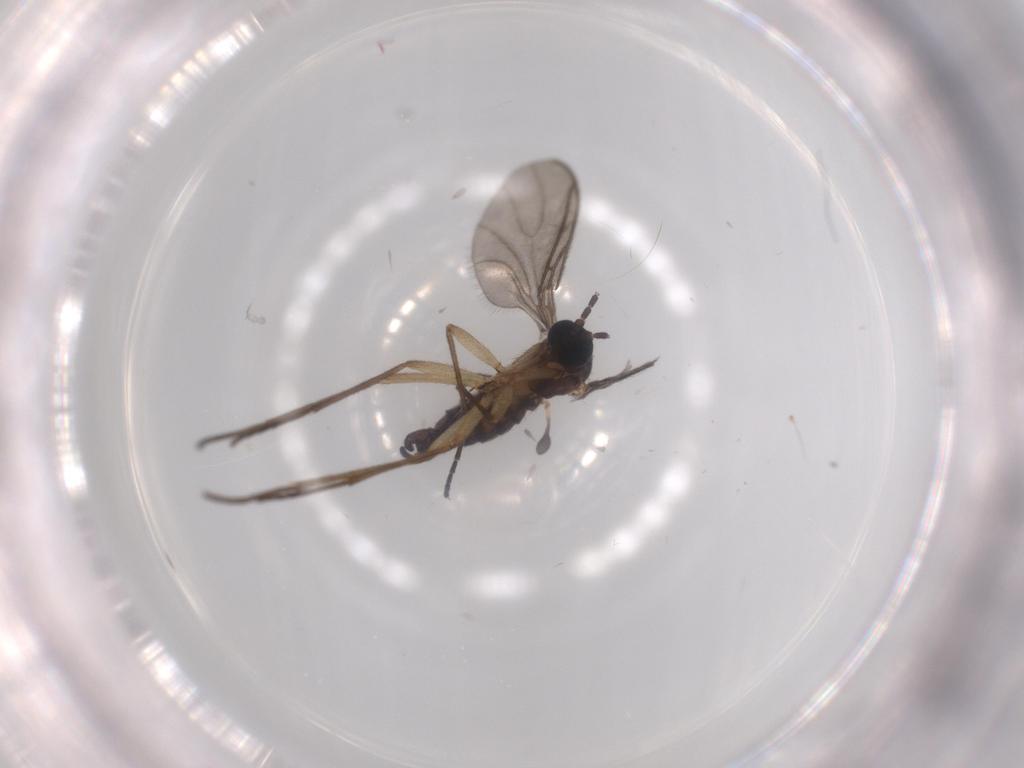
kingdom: Animalia
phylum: Arthropoda
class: Insecta
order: Diptera
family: Sciaridae
